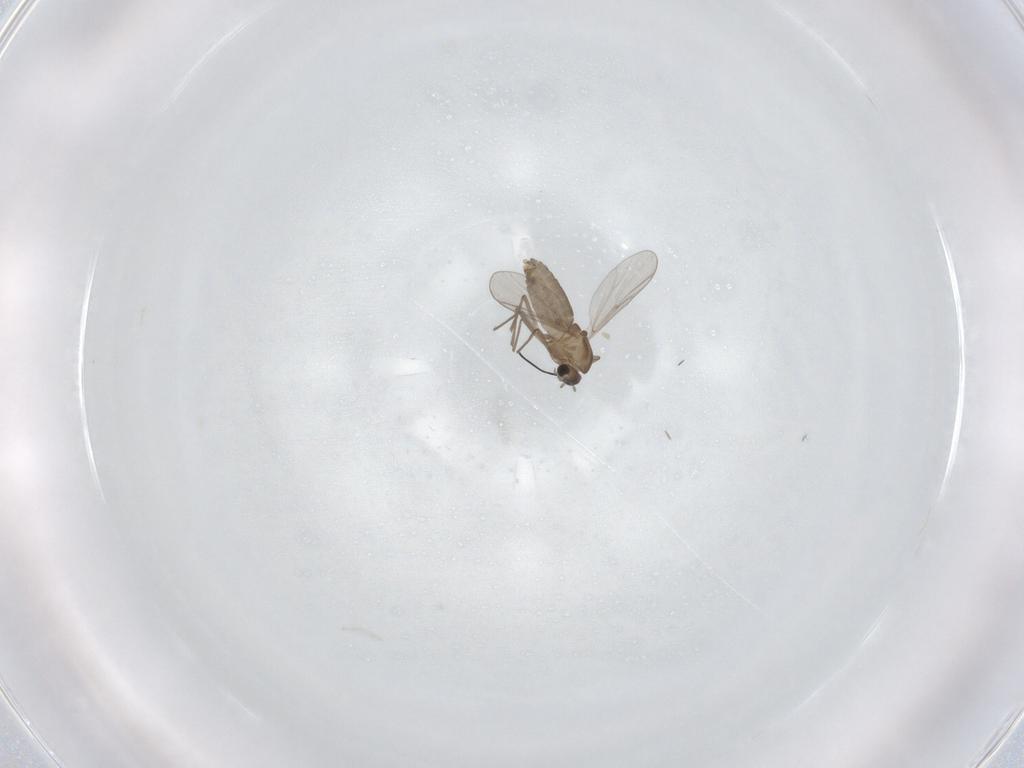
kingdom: Animalia
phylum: Arthropoda
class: Insecta
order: Diptera
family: Chironomidae
